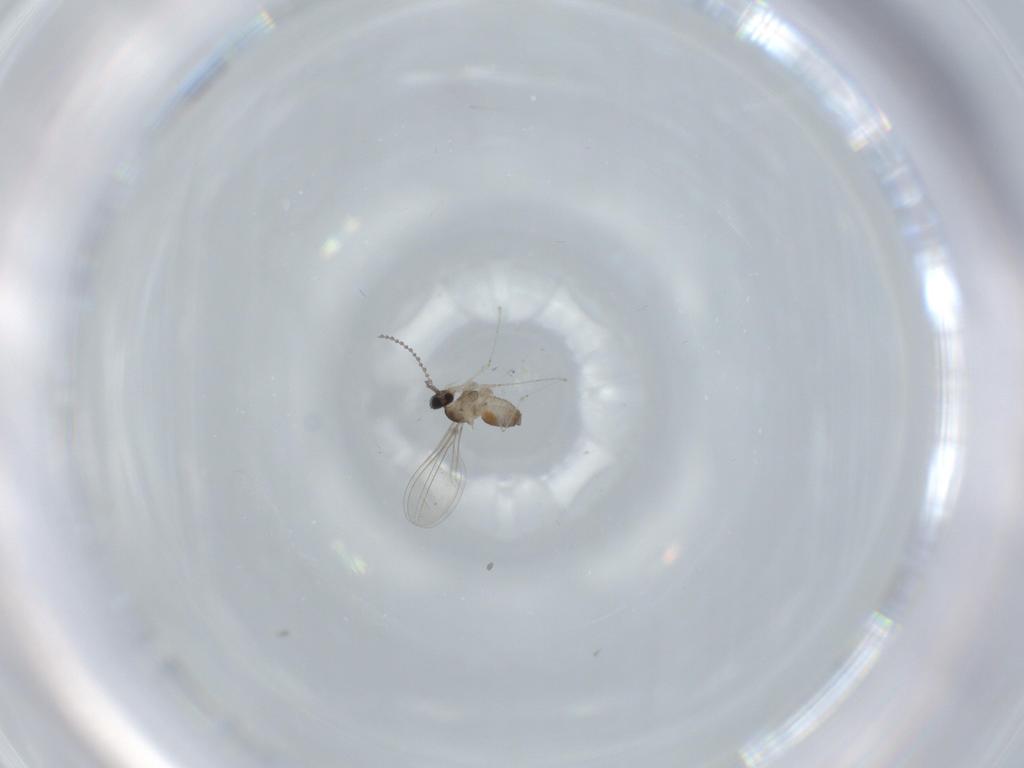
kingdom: Animalia
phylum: Arthropoda
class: Insecta
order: Diptera
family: Cecidomyiidae
